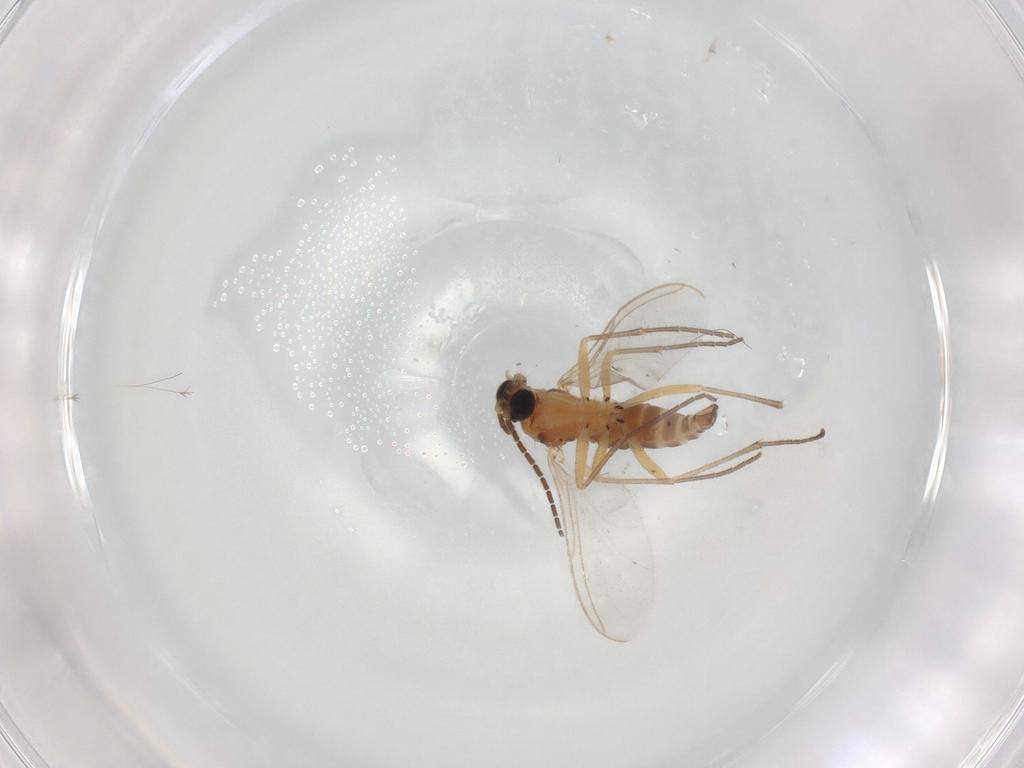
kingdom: Animalia
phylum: Arthropoda
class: Insecta
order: Diptera
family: Sciaridae
